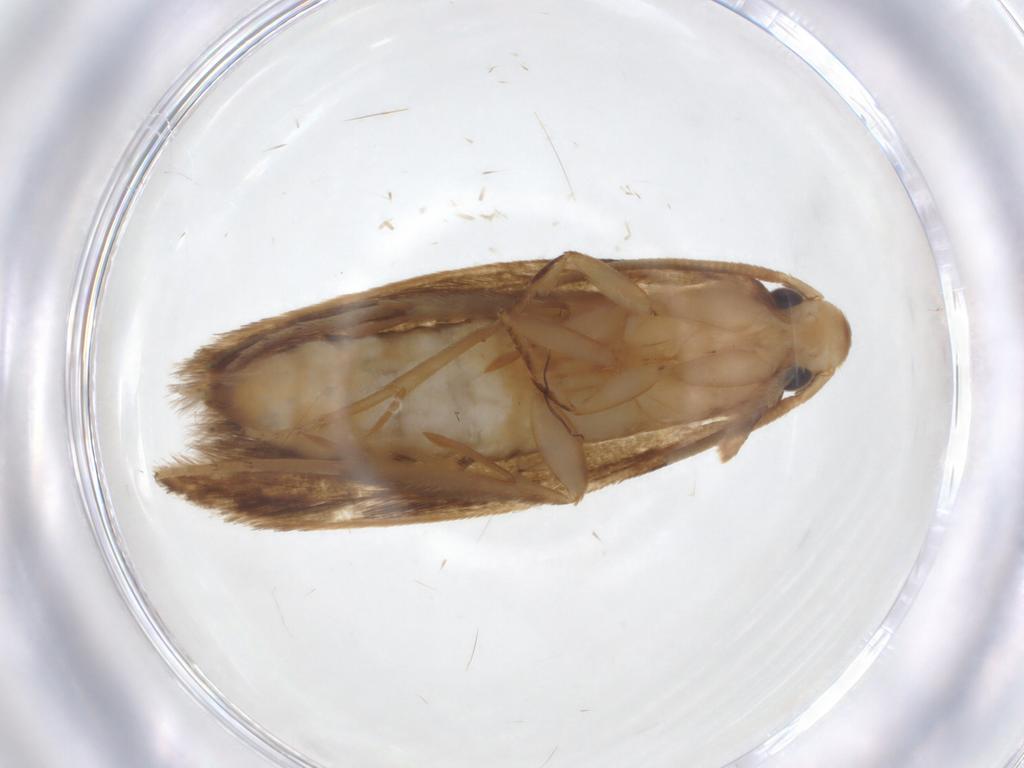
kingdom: Animalia
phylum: Arthropoda
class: Insecta
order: Lepidoptera
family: Tineidae
